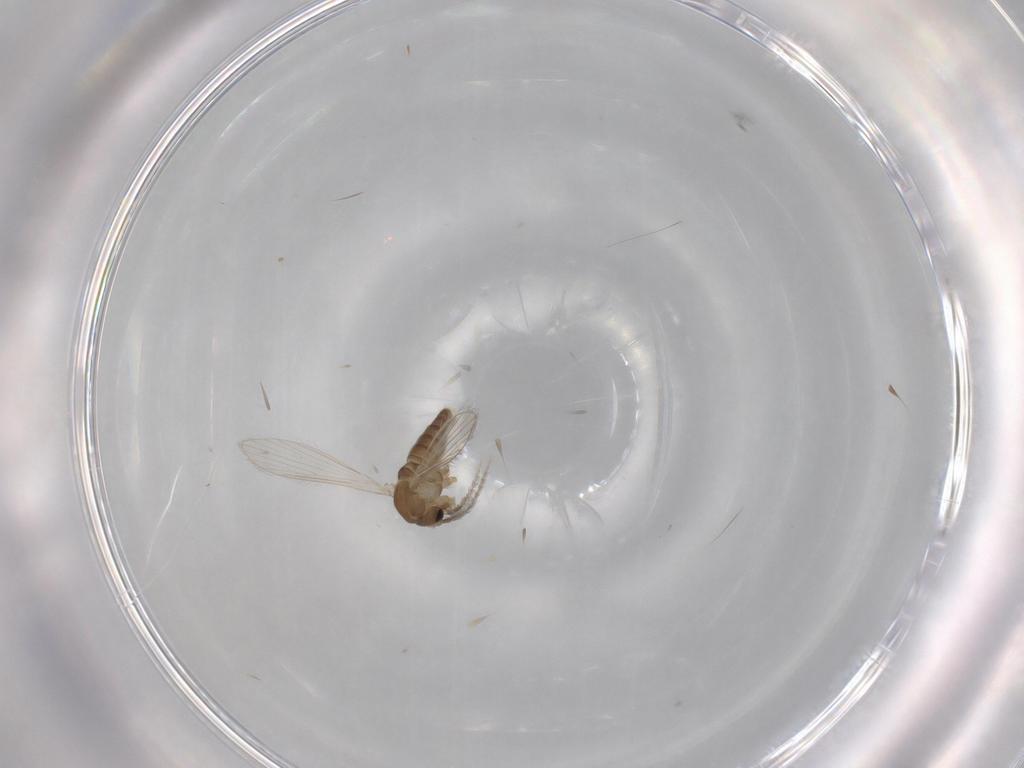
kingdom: Animalia
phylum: Arthropoda
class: Insecta
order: Diptera
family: Psychodidae
